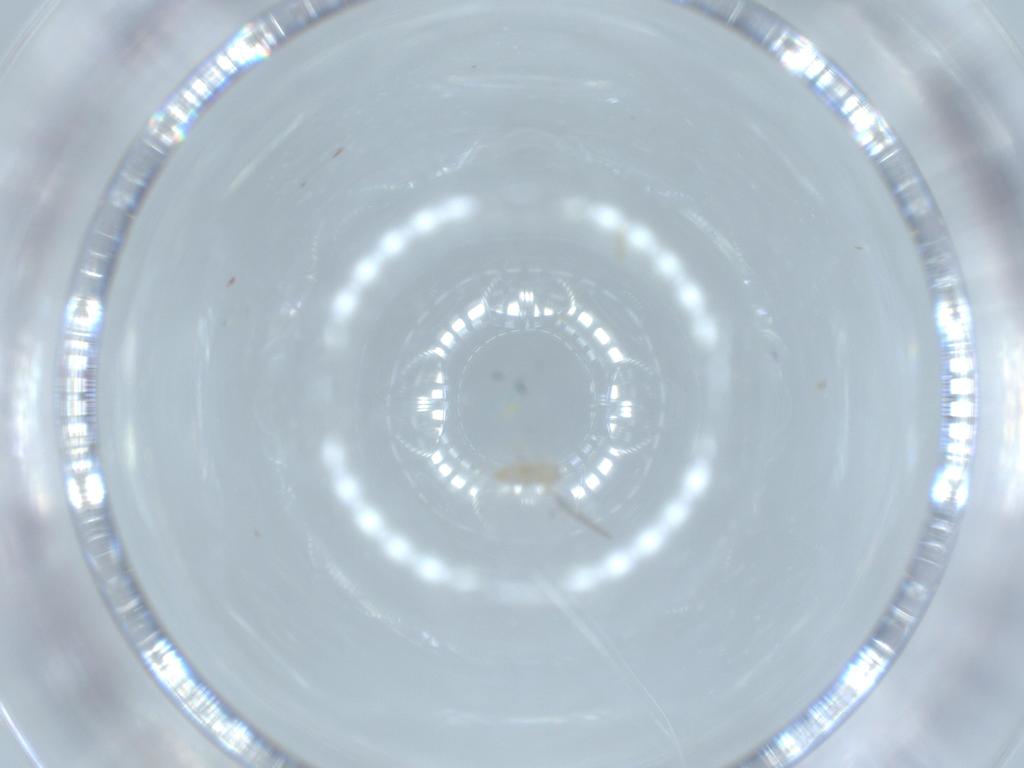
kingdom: Animalia
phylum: Arthropoda
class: Insecta
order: Diptera
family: Cecidomyiidae
